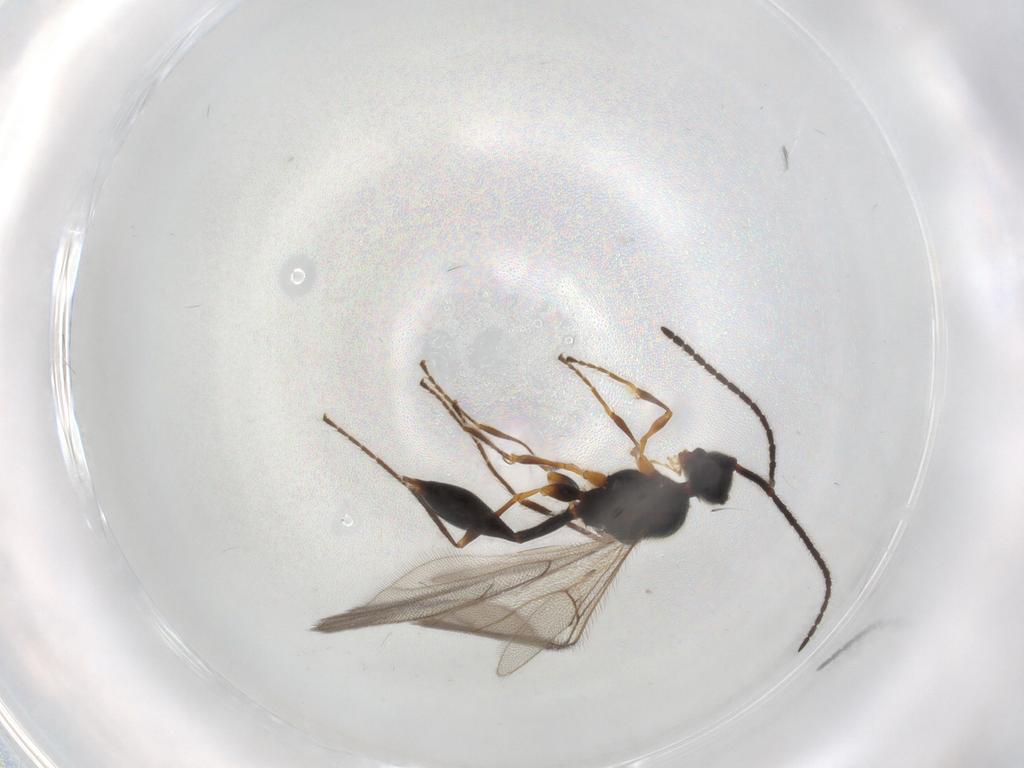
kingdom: Animalia
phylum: Arthropoda
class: Insecta
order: Hymenoptera
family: Diapriidae
